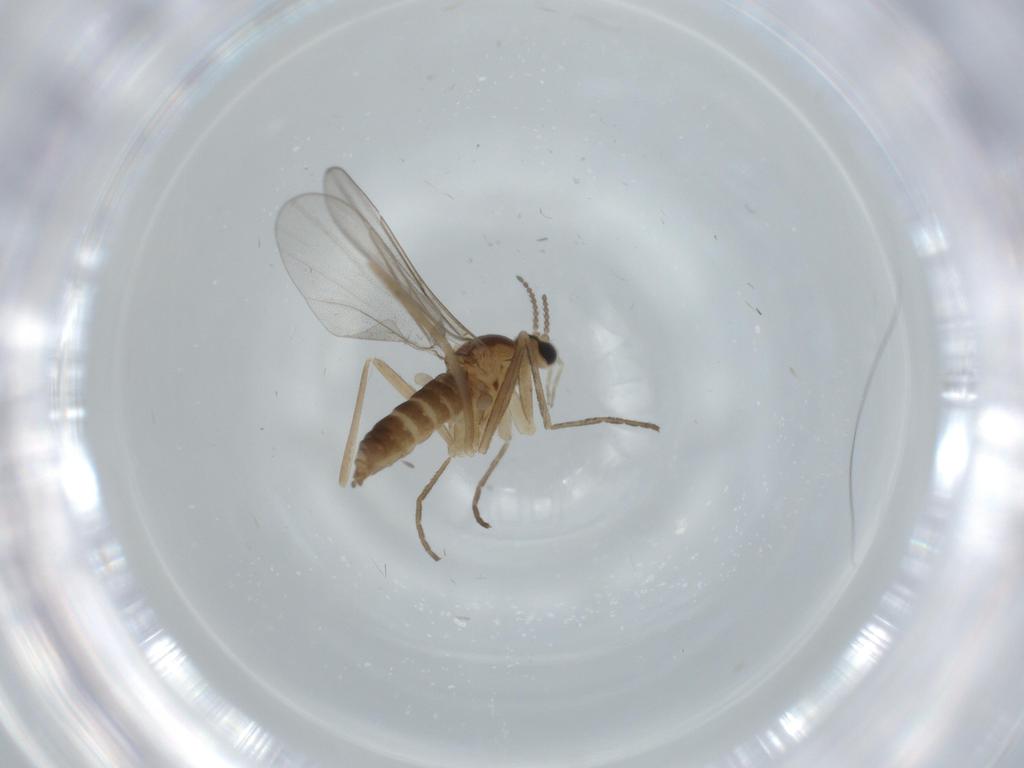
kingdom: Animalia
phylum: Arthropoda
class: Insecta
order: Diptera
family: Cecidomyiidae
